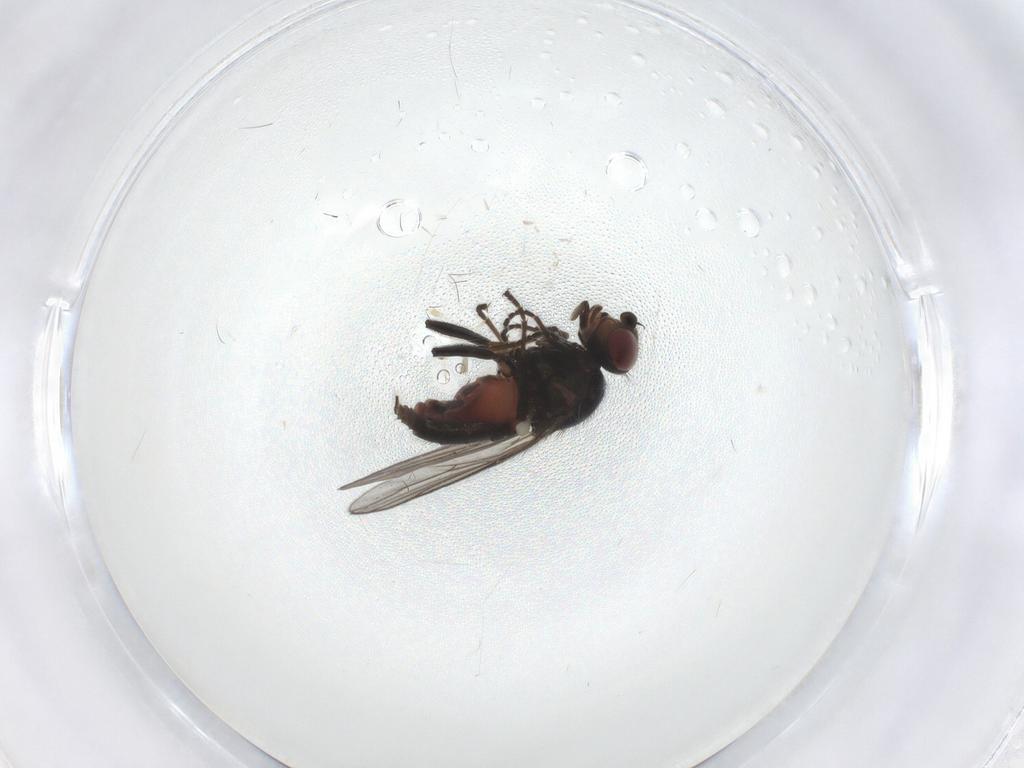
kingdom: Animalia
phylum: Arthropoda
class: Insecta
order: Diptera
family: Chloropidae
